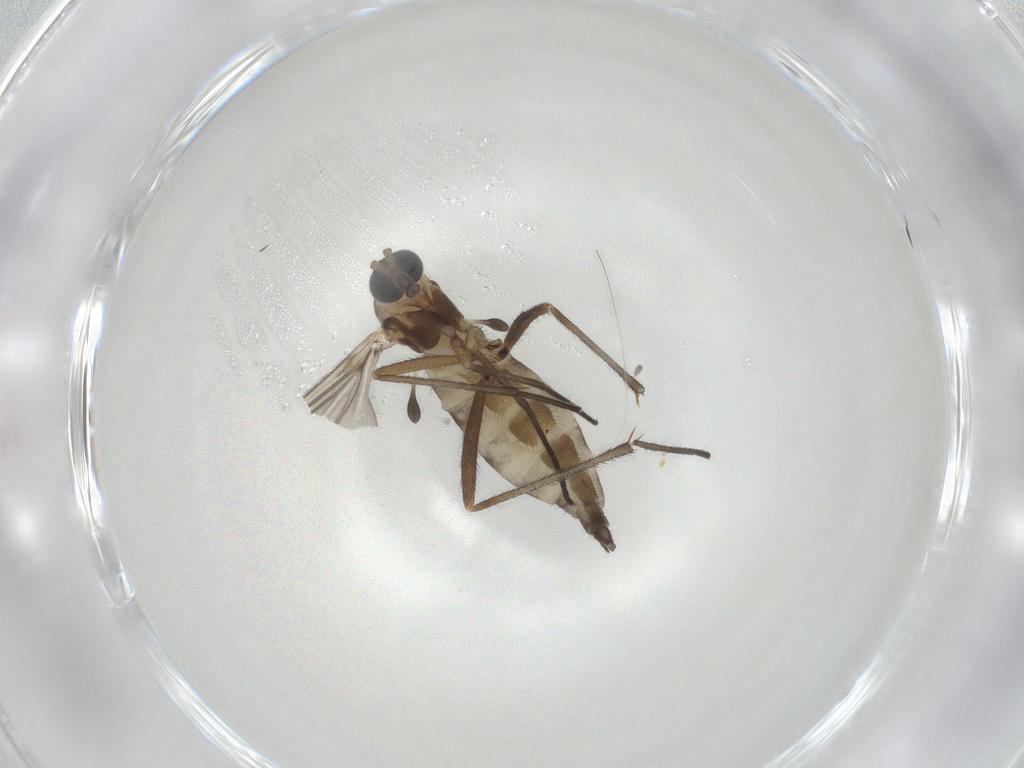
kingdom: Animalia
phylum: Arthropoda
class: Insecta
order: Diptera
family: Sciaridae
